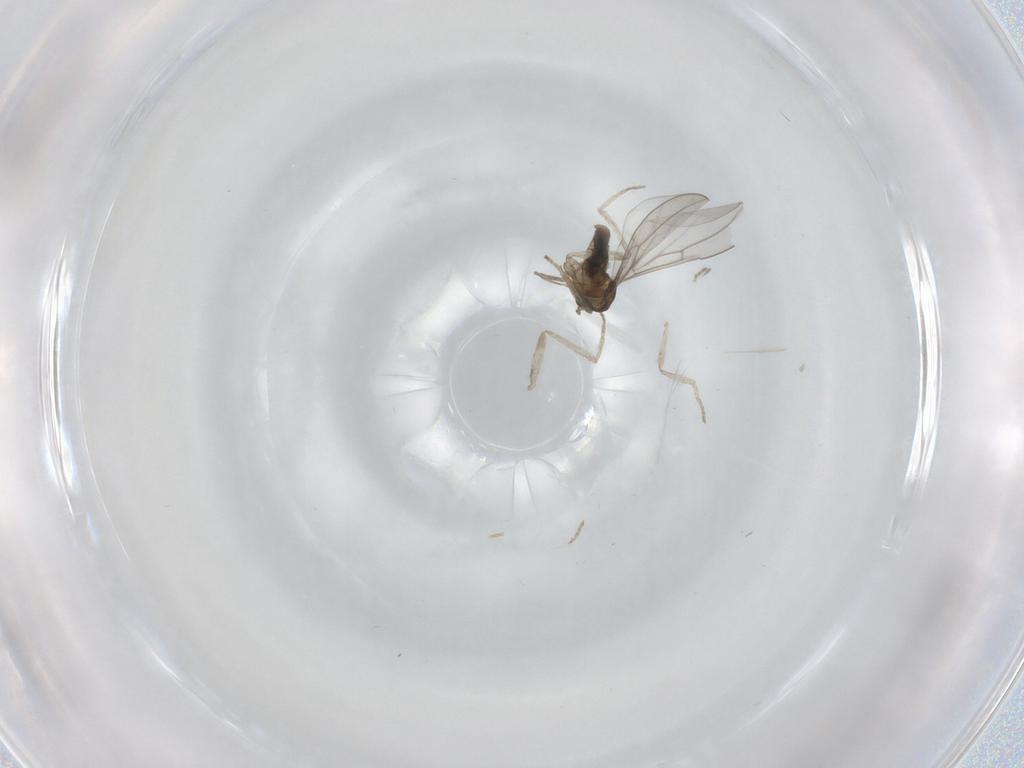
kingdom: Animalia
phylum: Arthropoda
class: Insecta
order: Diptera
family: Cecidomyiidae
